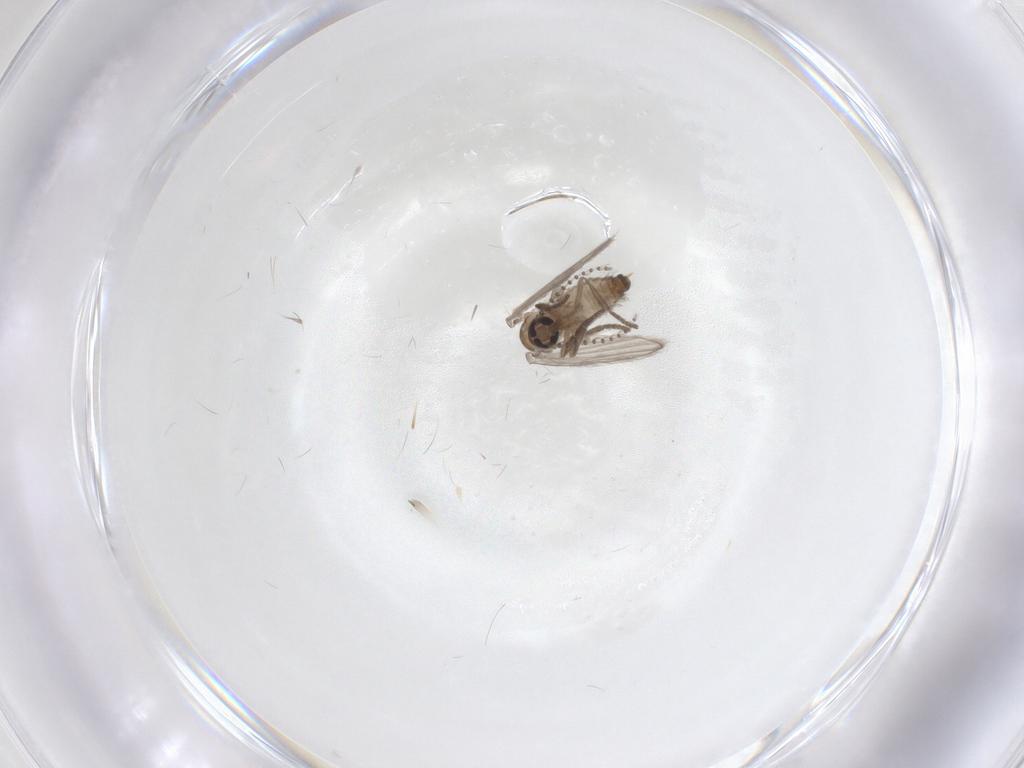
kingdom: Animalia
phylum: Arthropoda
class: Insecta
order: Diptera
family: Psychodidae
